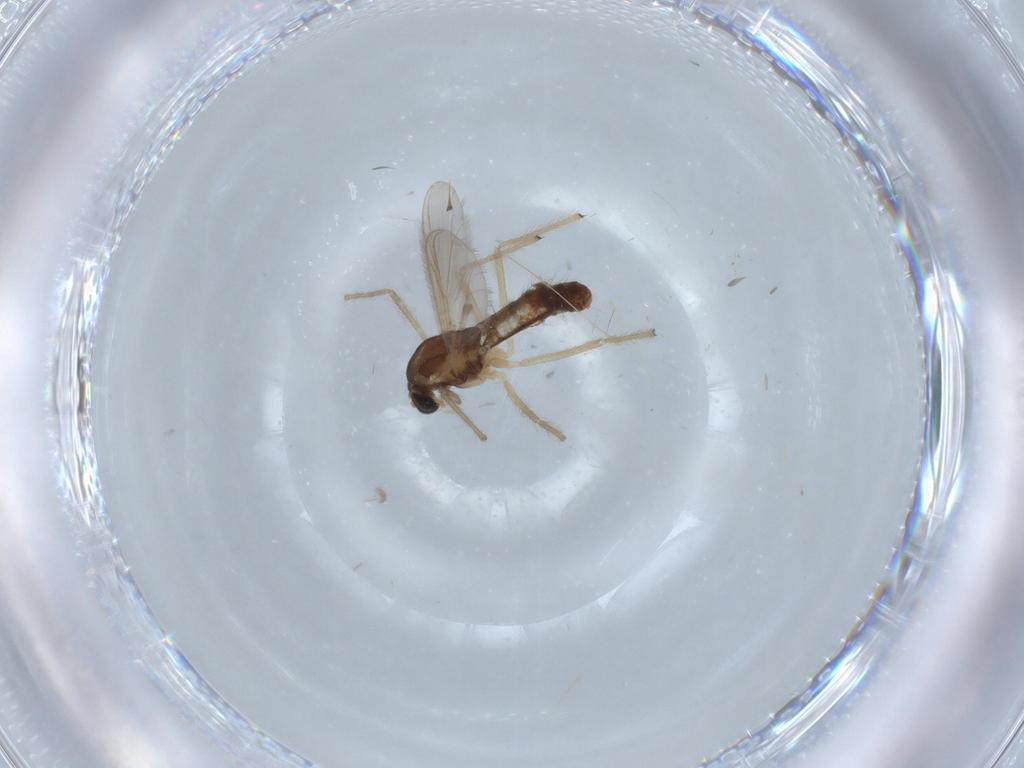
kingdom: Animalia
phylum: Arthropoda
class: Insecta
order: Diptera
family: Chironomidae
